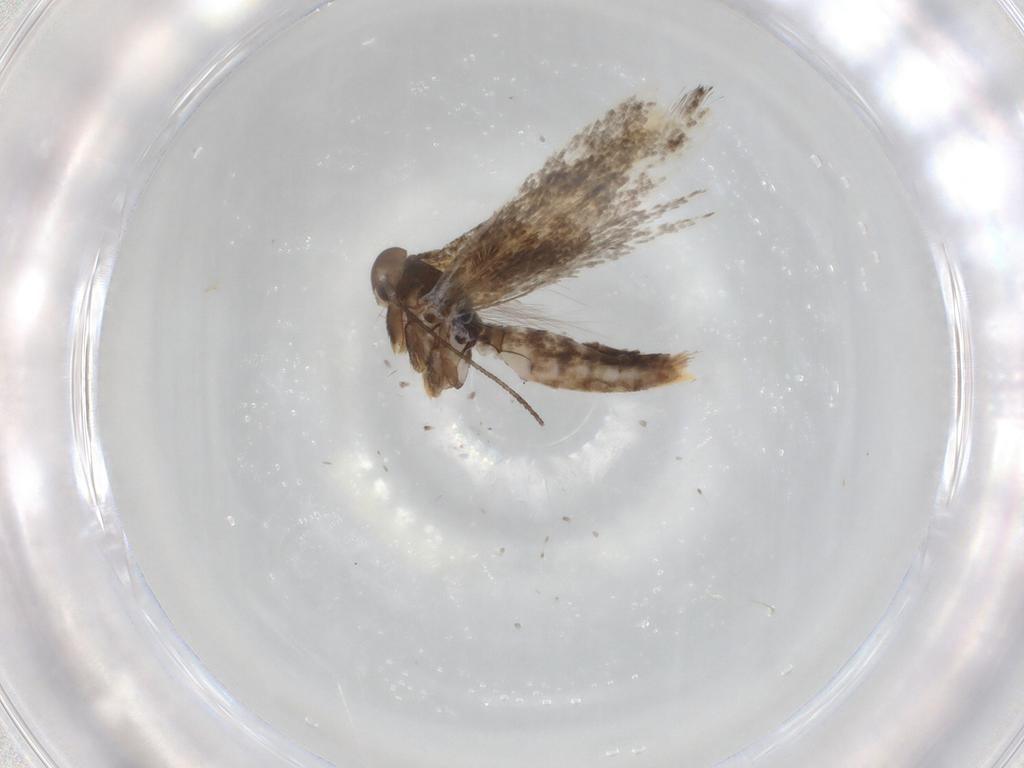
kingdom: Animalia
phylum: Arthropoda
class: Insecta
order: Lepidoptera
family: Elachistidae
